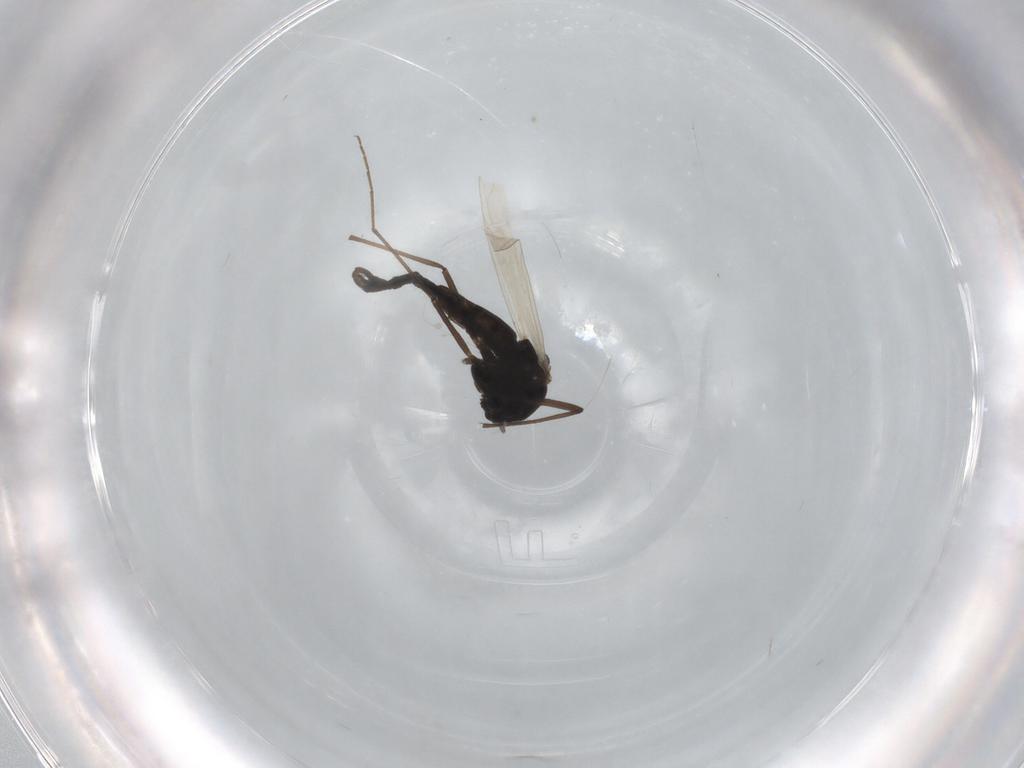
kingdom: Animalia
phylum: Arthropoda
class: Insecta
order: Diptera
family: Chironomidae
